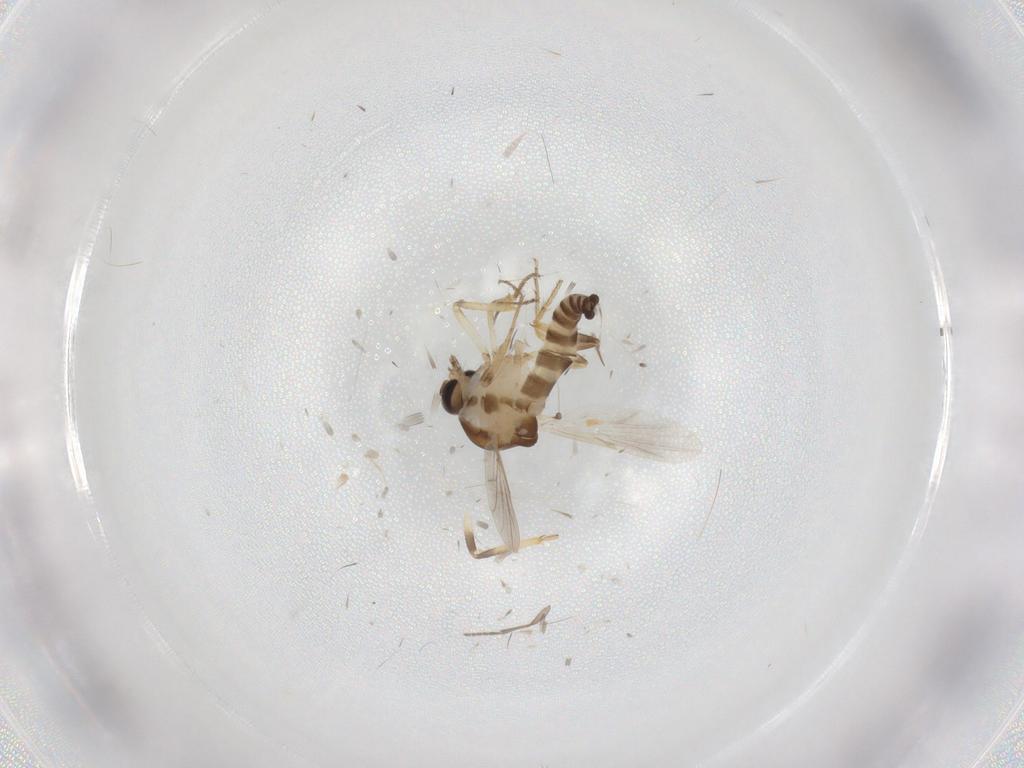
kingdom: Animalia
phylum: Arthropoda
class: Insecta
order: Diptera
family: Ceratopogonidae
